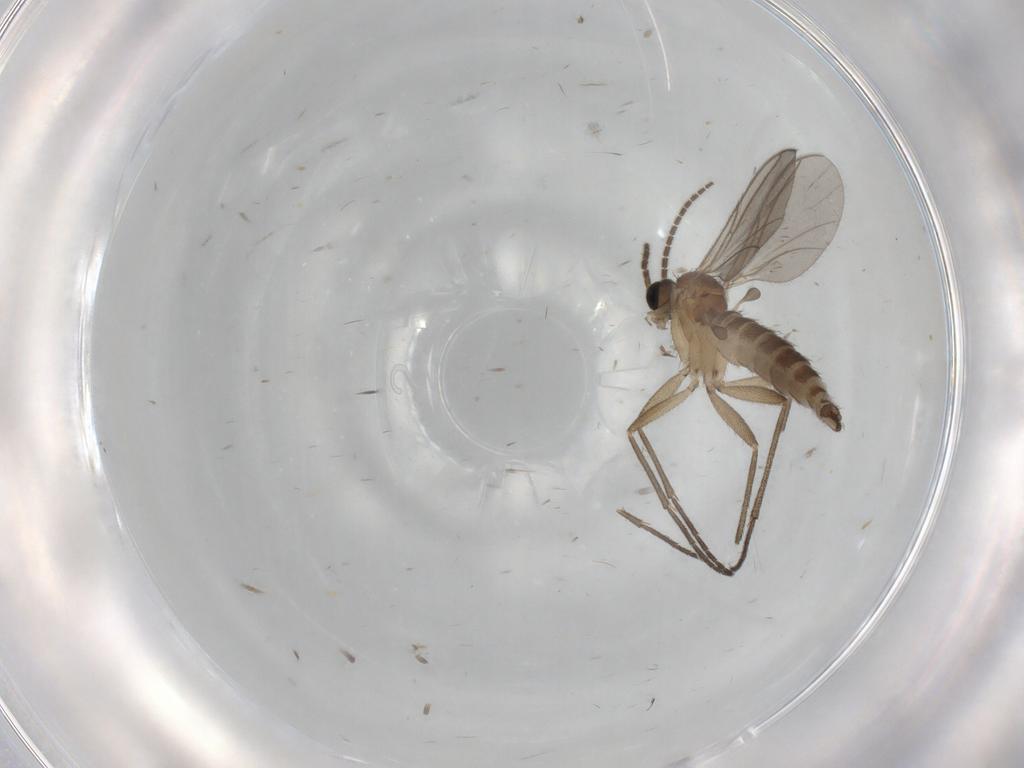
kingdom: Animalia
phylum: Arthropoda
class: Insecta
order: Diptera
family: Sciaridae
